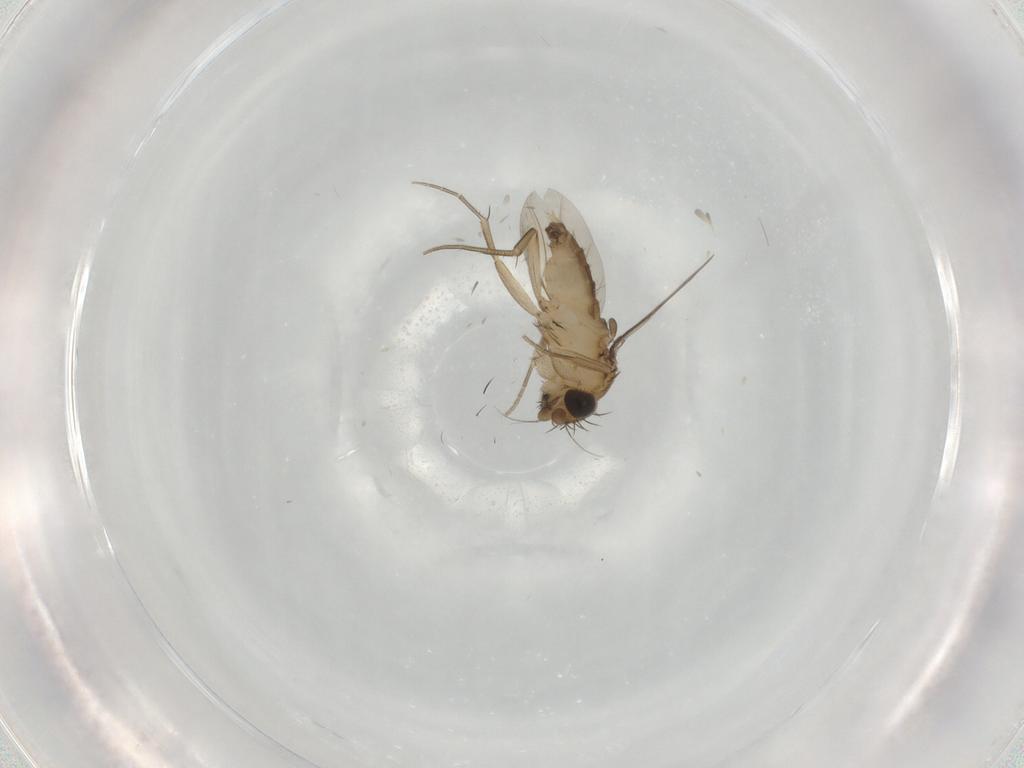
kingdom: Animalia
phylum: Arthropoda
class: Insecta
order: Diptera
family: Phoridae
